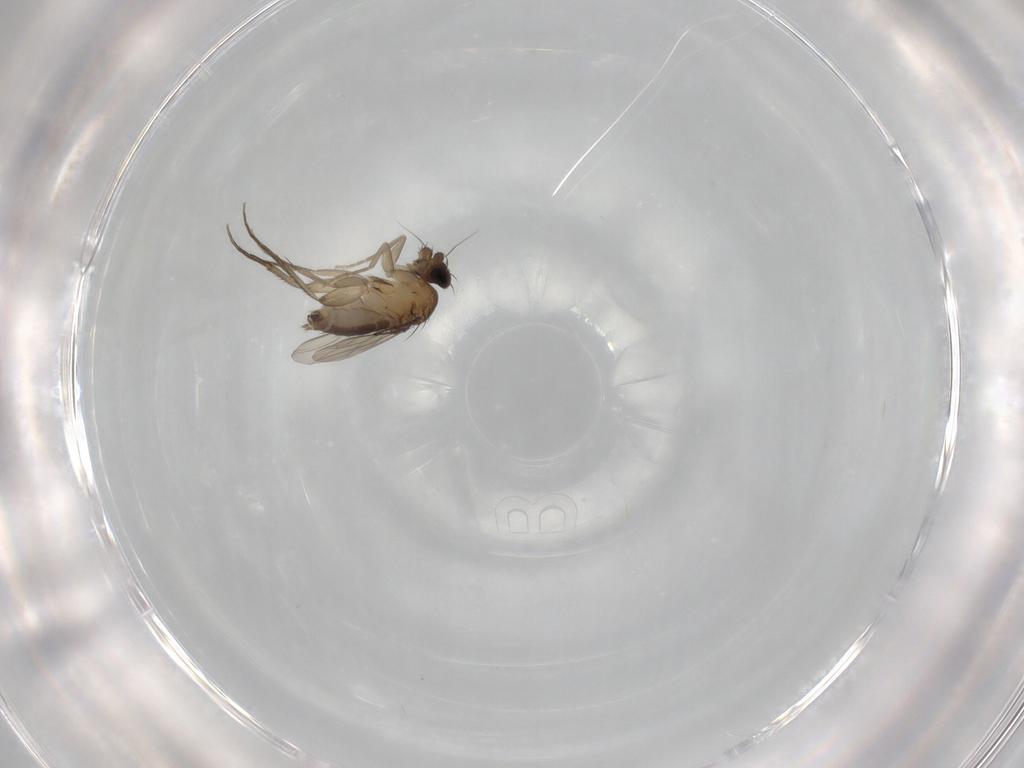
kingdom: Animalia
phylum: Arthropoda
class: Insecta
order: Diptera
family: Phoridae
